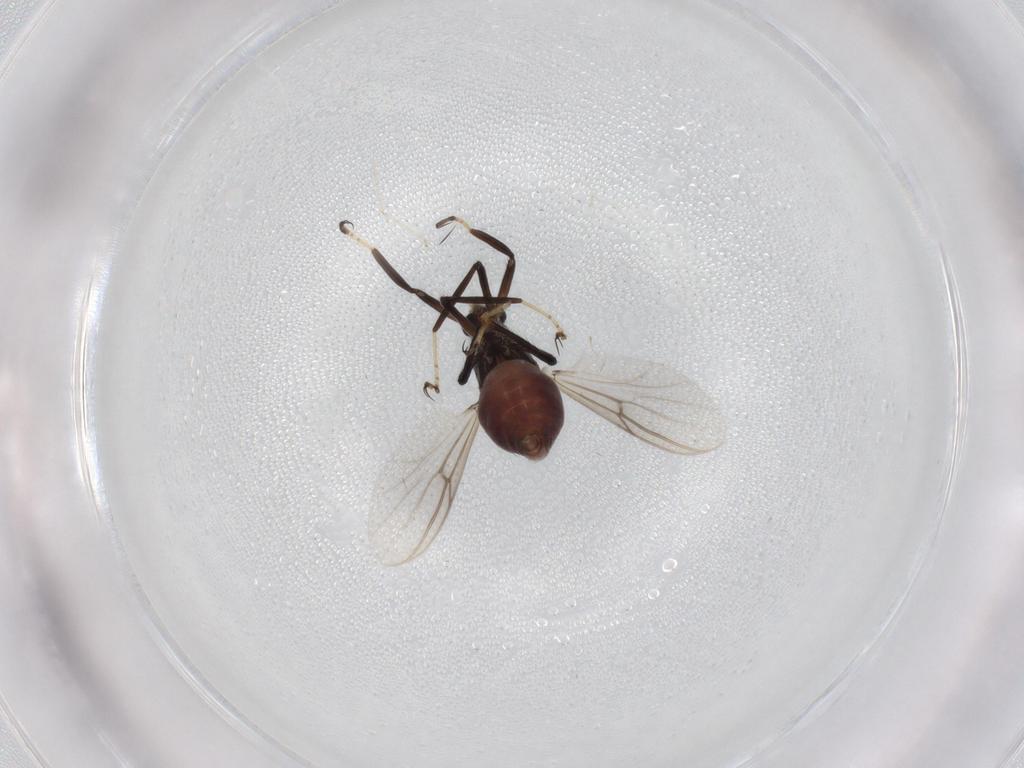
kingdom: Animalia
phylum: Arthropoda
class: Insecta
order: Diptera
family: Ceratopogonidae
